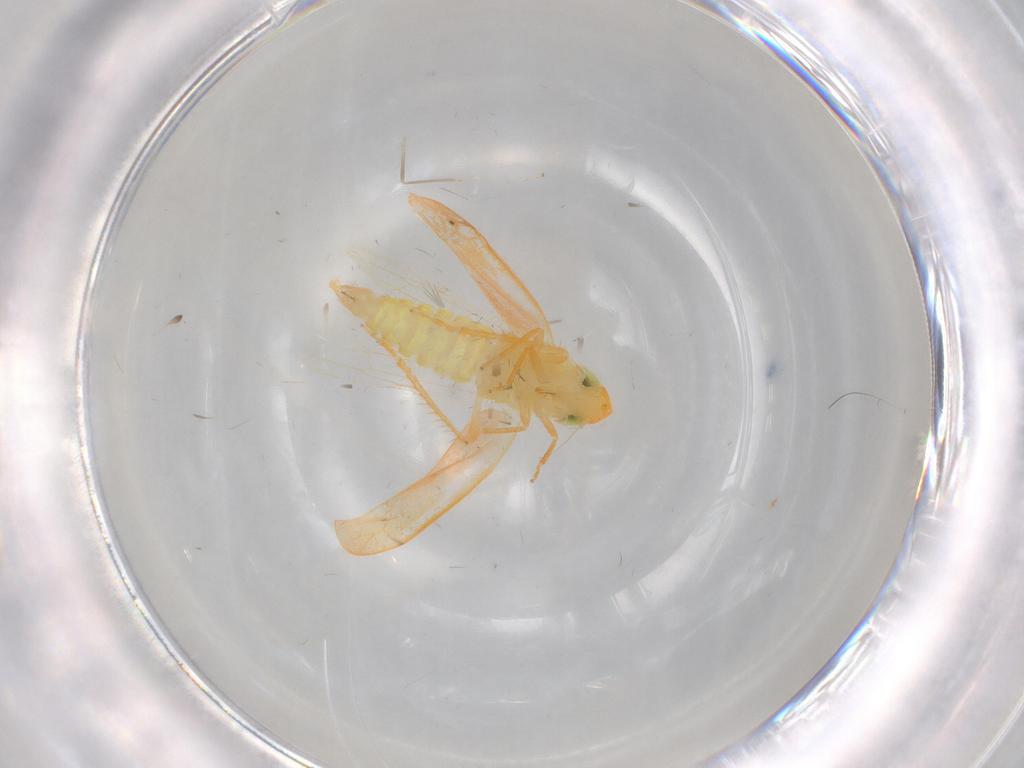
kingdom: Animalia
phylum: Arthropoda
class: Insecta
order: Hemiptera
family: Cicadellidae
